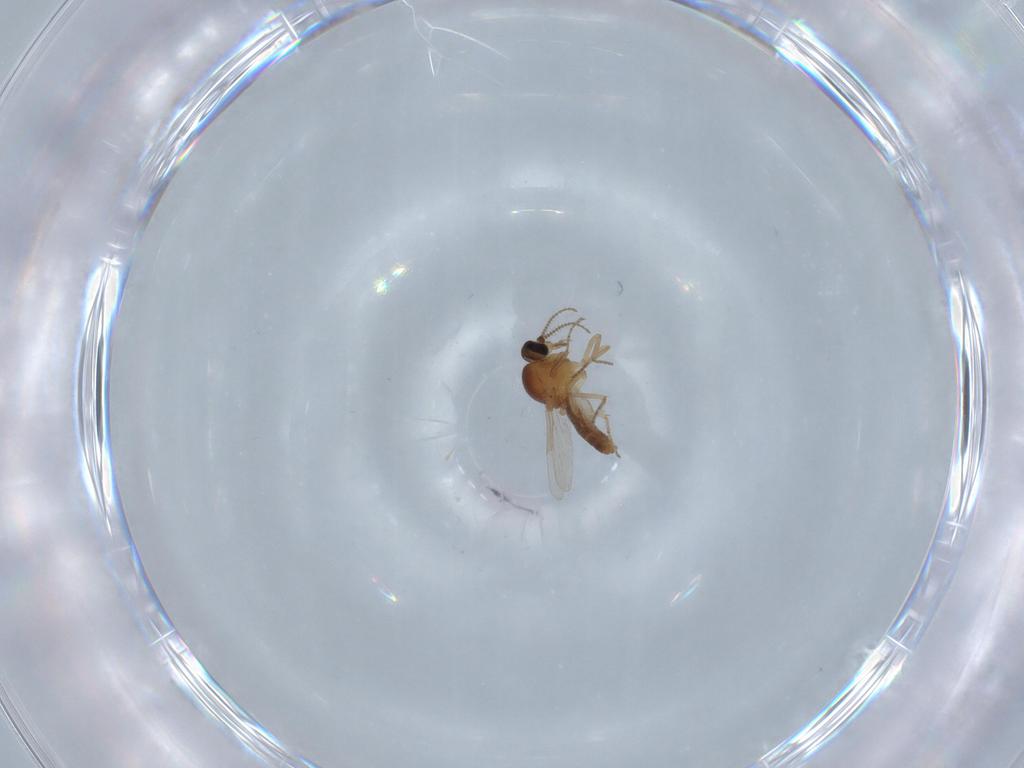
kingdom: Animalia
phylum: Arthropoda
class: Insecta
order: Diptera
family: Ceratopogonidae
